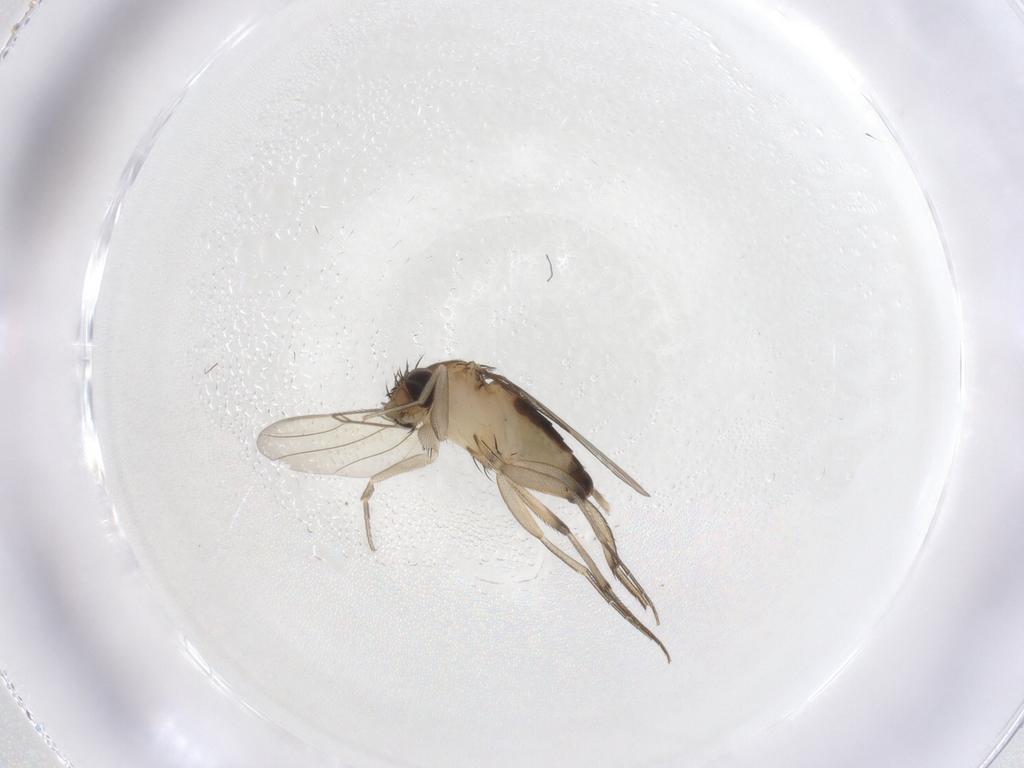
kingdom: Animalia
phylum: Arthropoda
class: Insecta
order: Diptera
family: Phoridae
